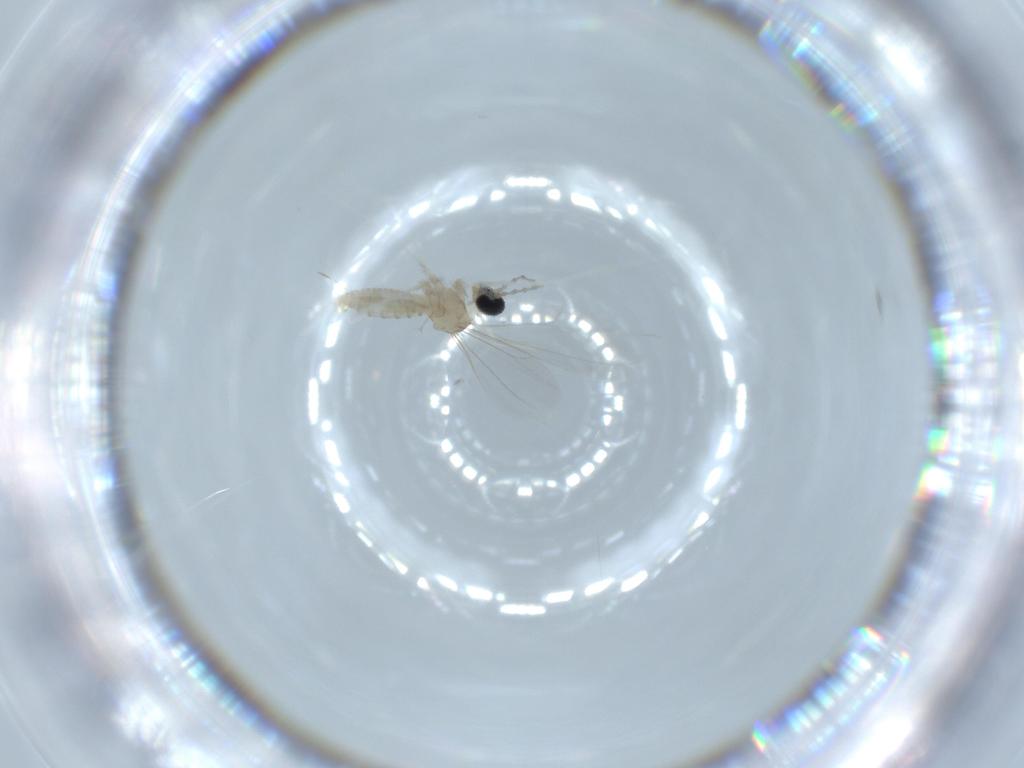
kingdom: Animalia
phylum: Arthropoda
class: Insecta
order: Diptera
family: Cecidomyiidae
